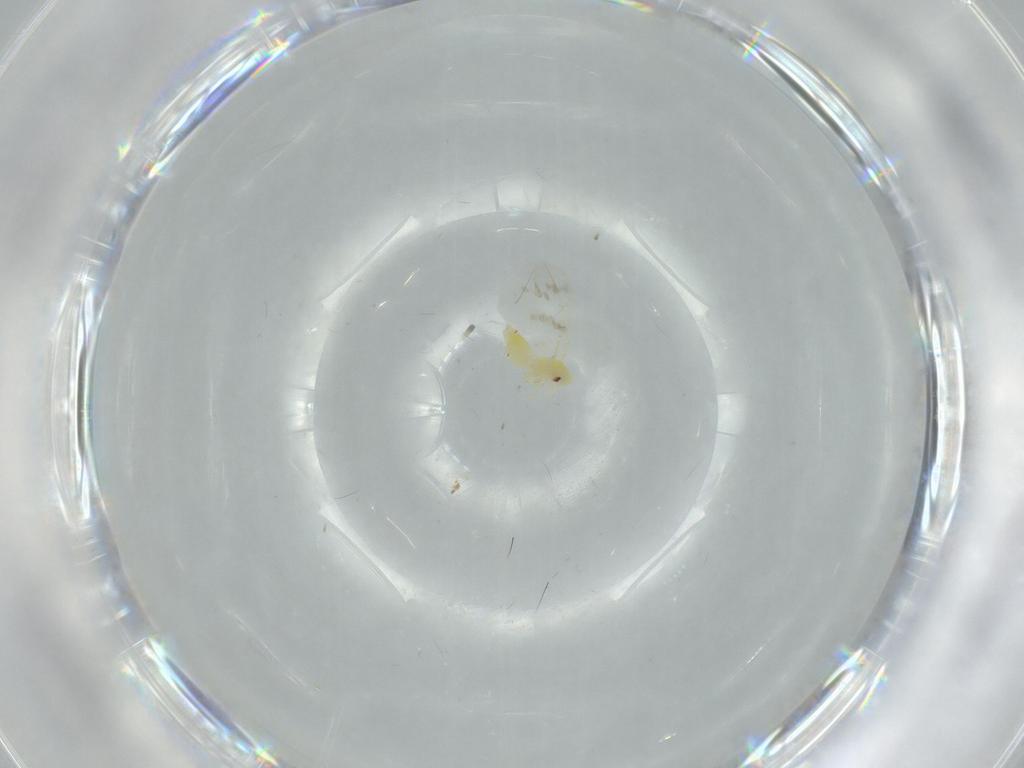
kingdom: Animalia
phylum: Arthropoda
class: Insecta
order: Hemiptera
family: Aleyrodidae
